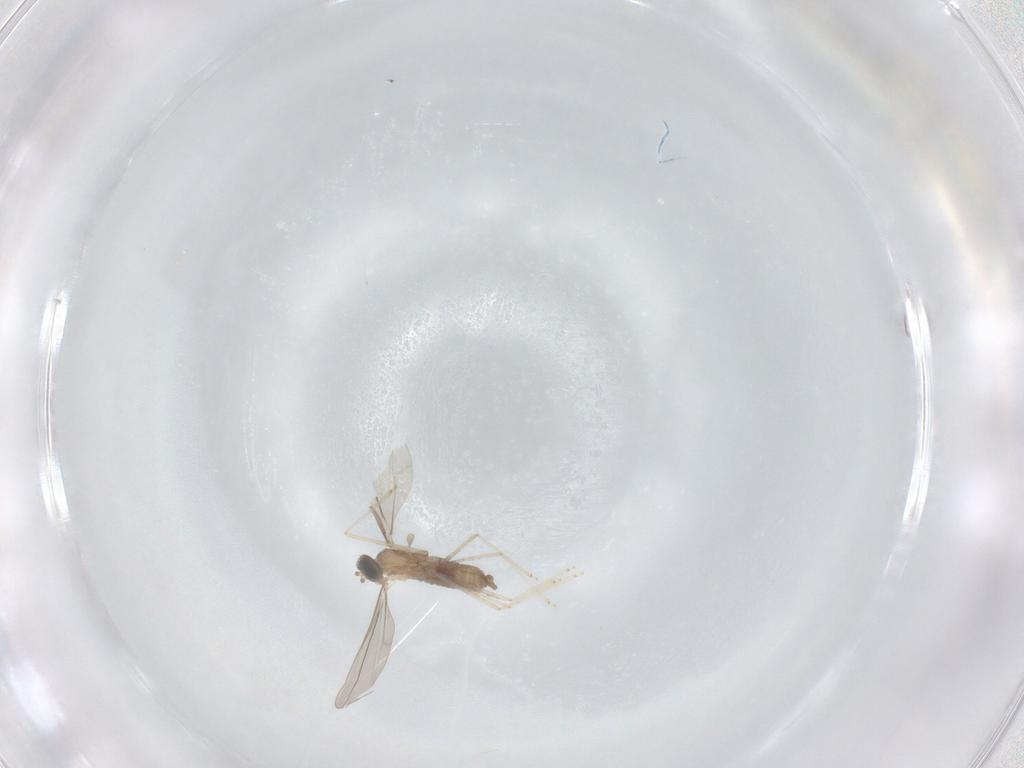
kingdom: Animalia
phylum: Arthropoda
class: Insecta
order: Diptera
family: Cecidomyiidae
